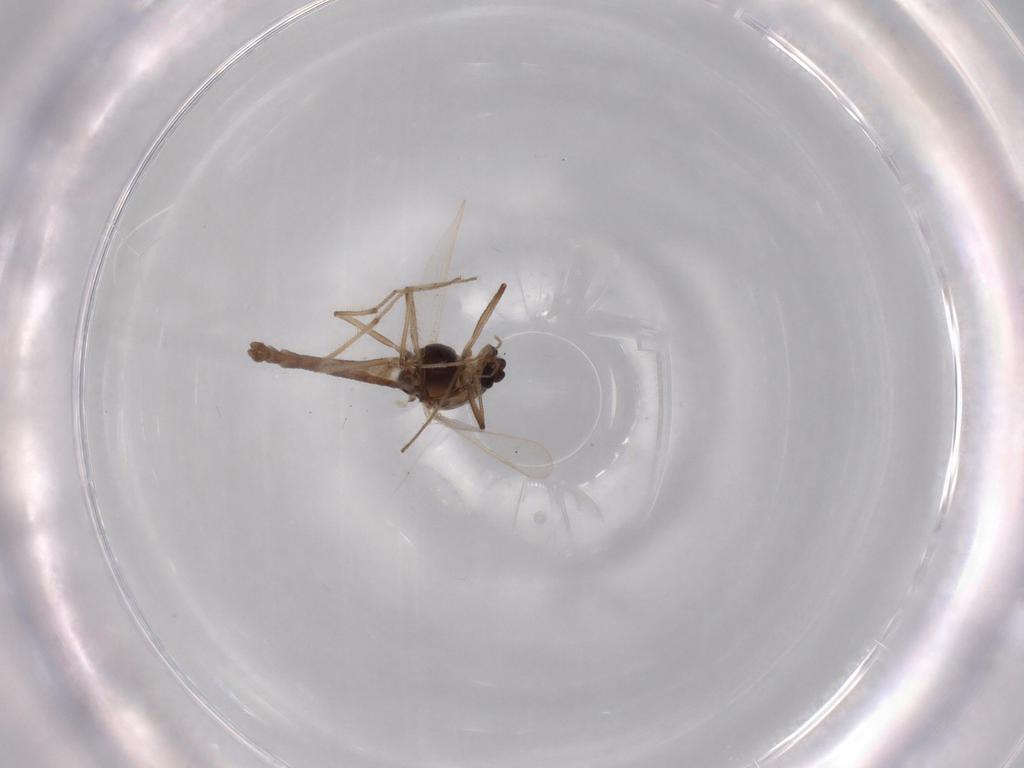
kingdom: Animalia
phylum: Arthropoda
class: Insecta
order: Diptera
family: Chironomidae
